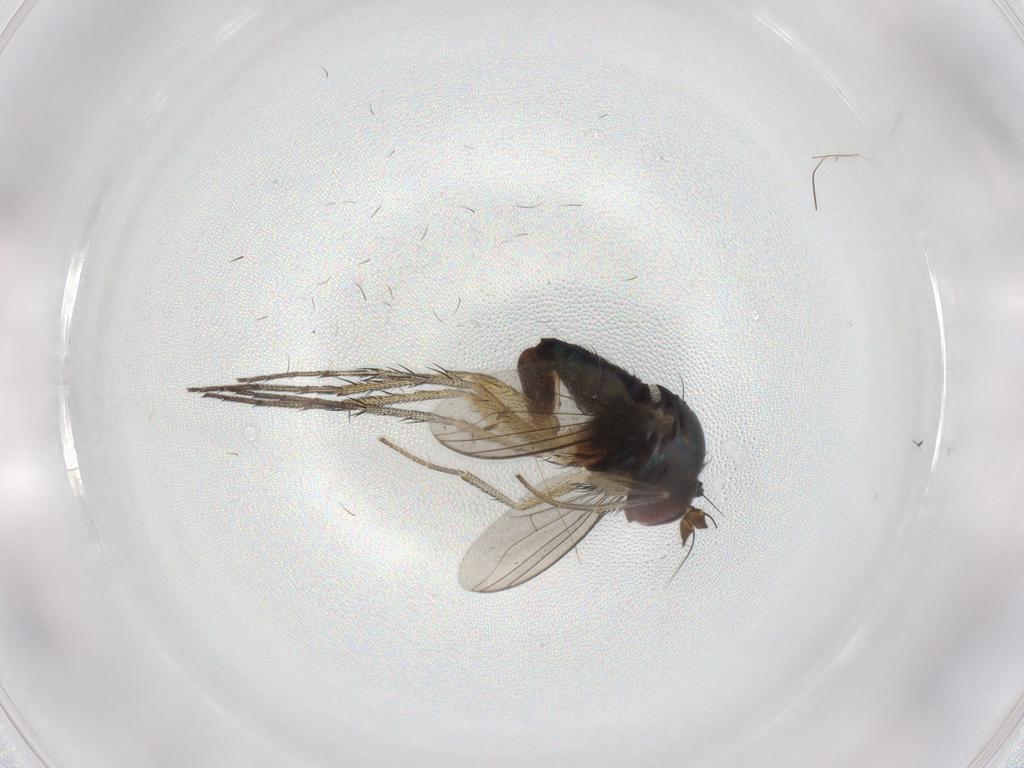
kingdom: Animalia
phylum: Arthropoda
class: Insecta
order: Diptera
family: Dolichopodidae
